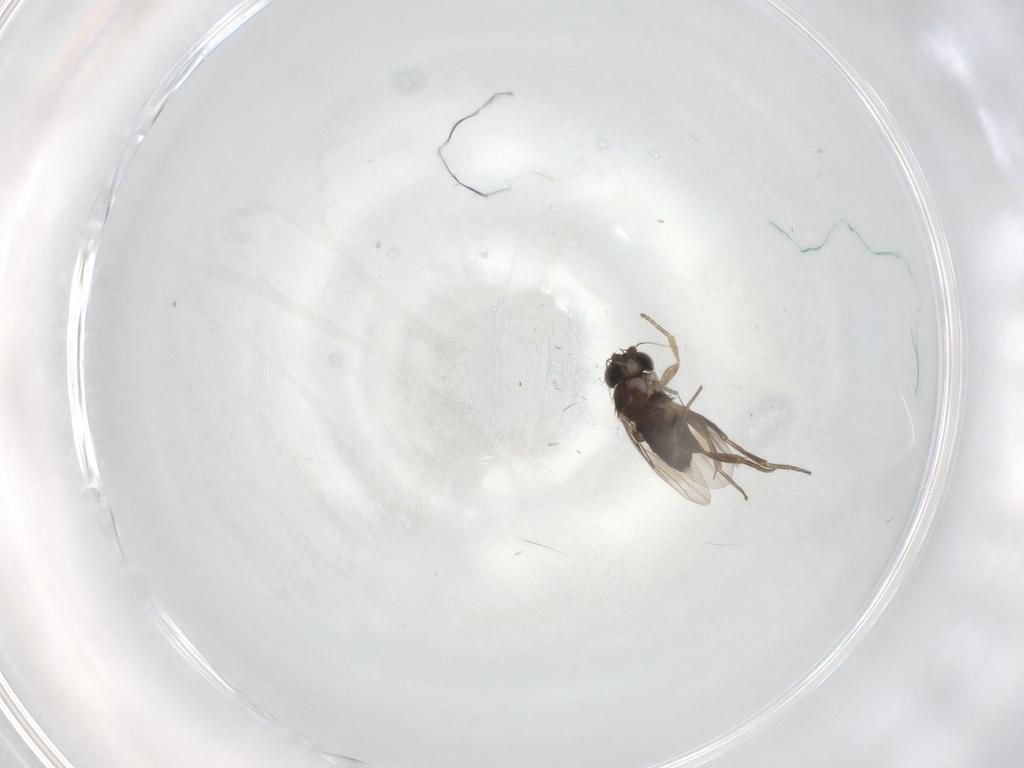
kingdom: Animalia
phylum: Arthropoda
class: Insecta
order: Diptera
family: Phoridae
